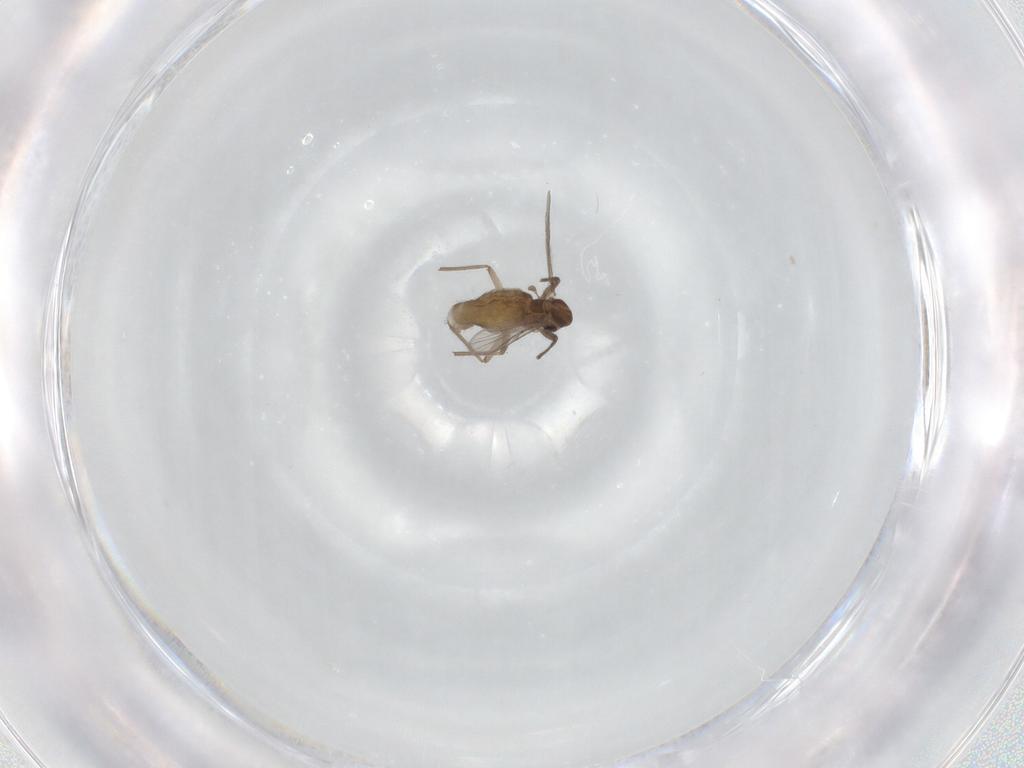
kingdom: Animalia
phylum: Arthropoda
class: Insecta
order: Diptera
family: Chironomidae
